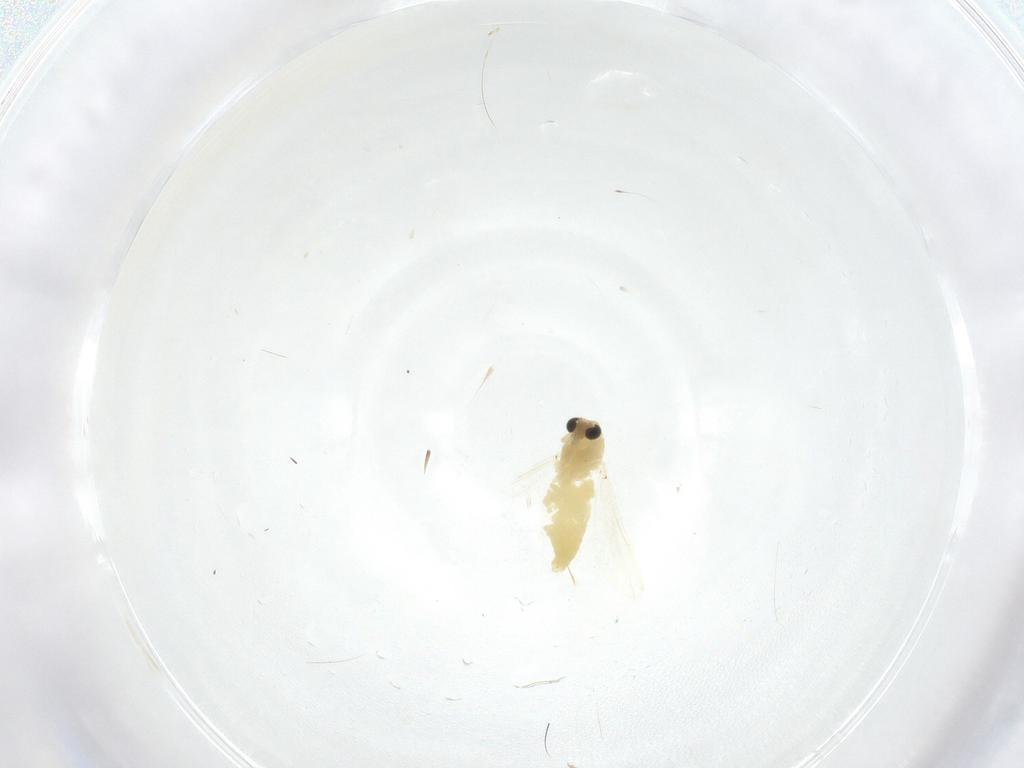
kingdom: Animalia
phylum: Arthropoda
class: Insecta
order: Diptera
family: Chironomidae
